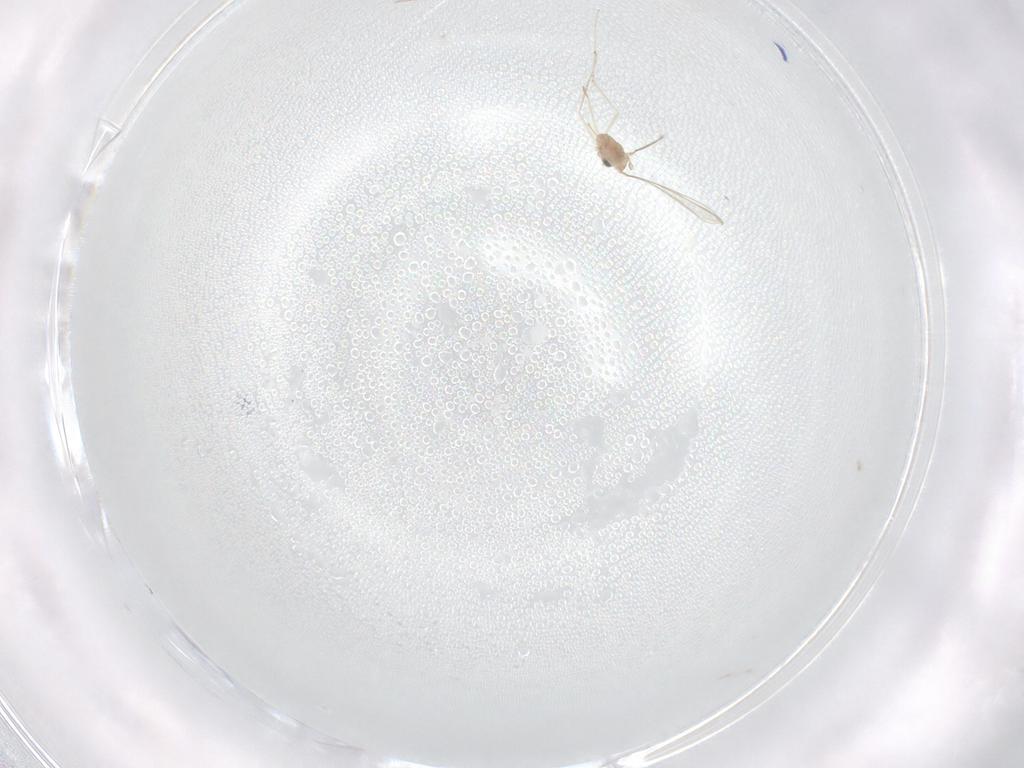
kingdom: Animalia
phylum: Arthropoda
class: Insecta
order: Diptera
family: Cecidomyiidae
